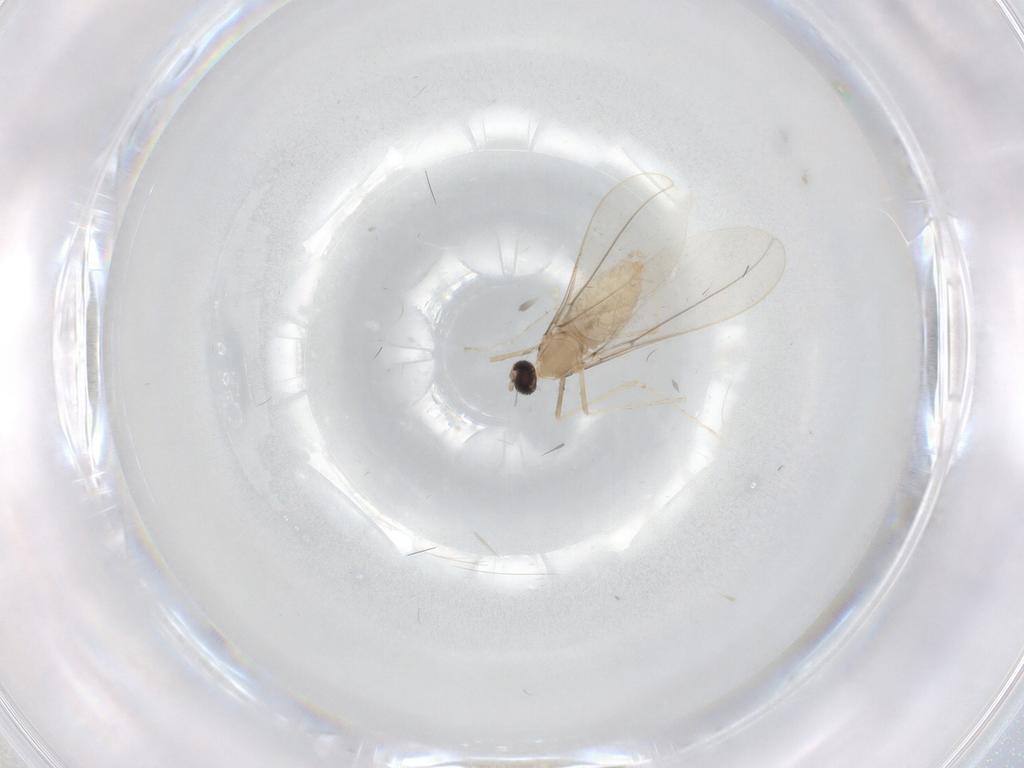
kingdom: Animalia
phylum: Arthropoda
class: Insecta
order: Diptera
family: Cecidomyiidae
